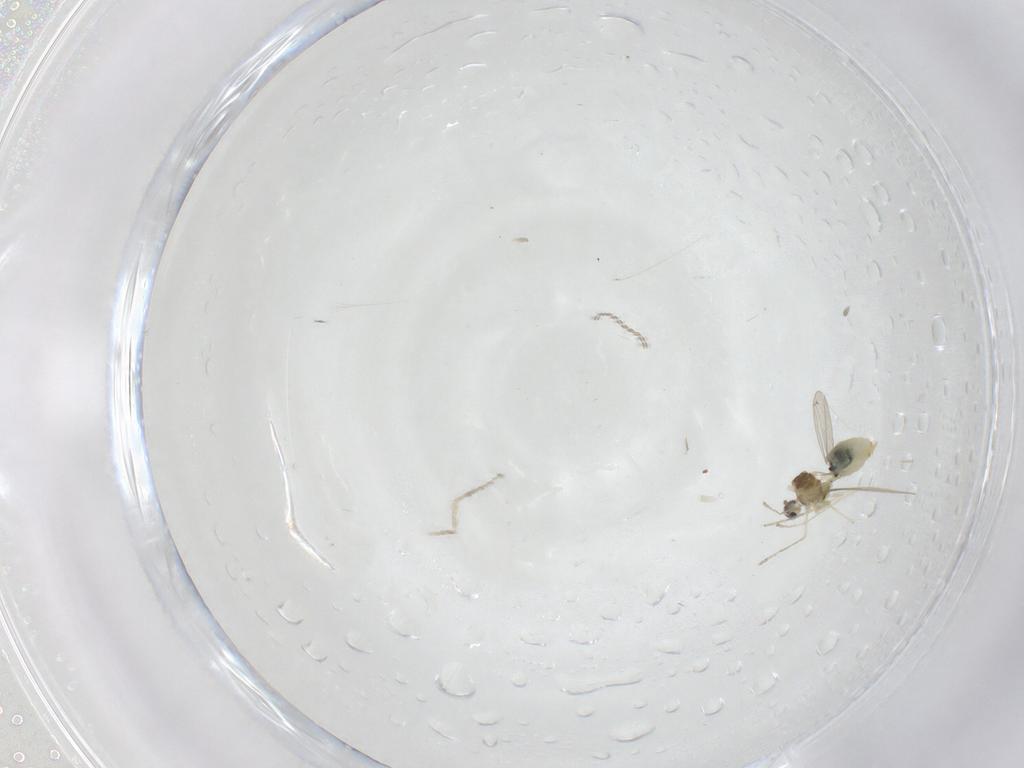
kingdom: Animalia
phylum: Arthropoda
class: Insecta
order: Diptera
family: Cecidomyiidae
